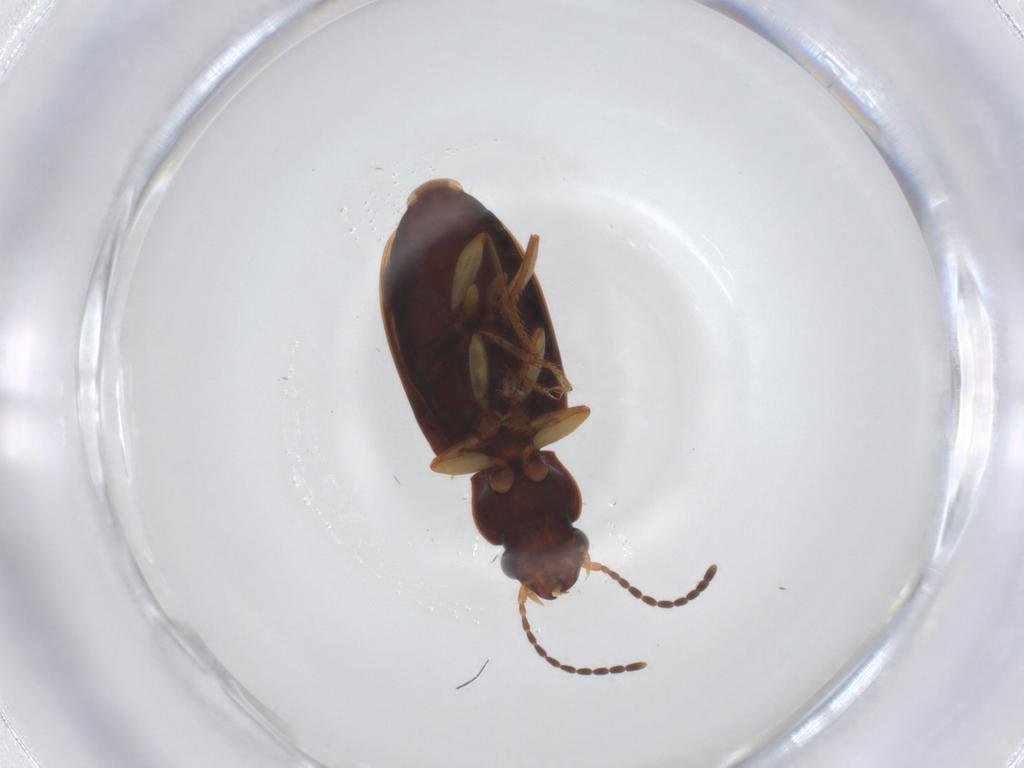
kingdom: Animalia
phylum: Arthropoda
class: Insecta
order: Coleoptera
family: Carabidae
